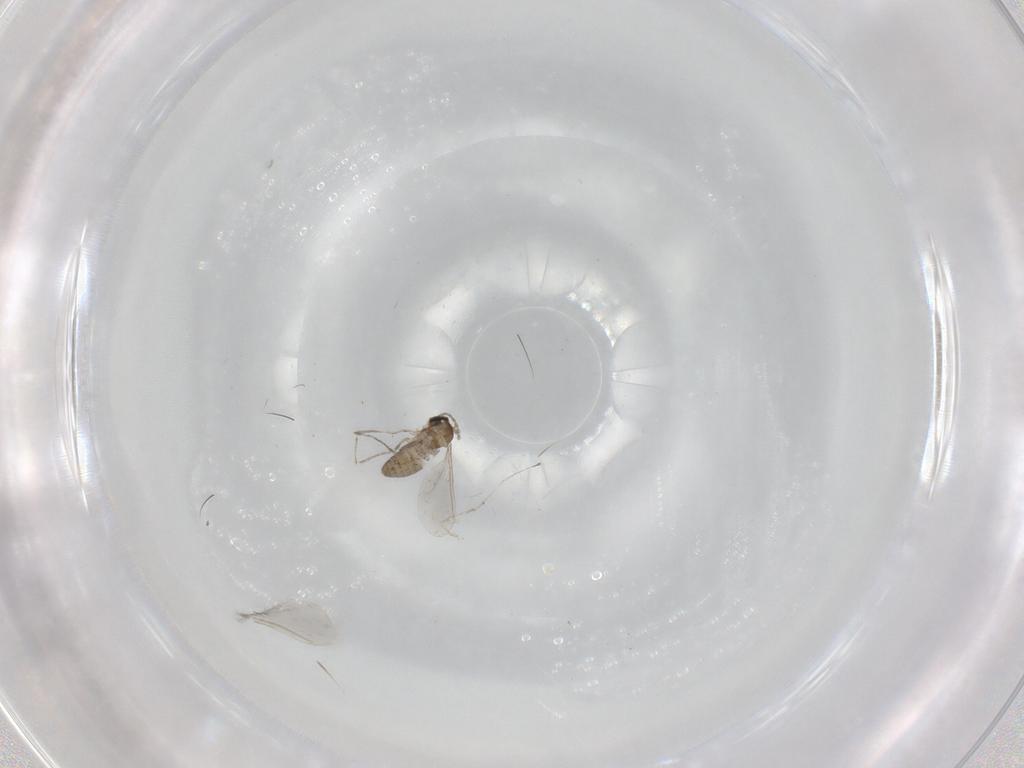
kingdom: Animalia
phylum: Arthropoda
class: Insecta
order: Diptera
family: Cecidomyiidae
